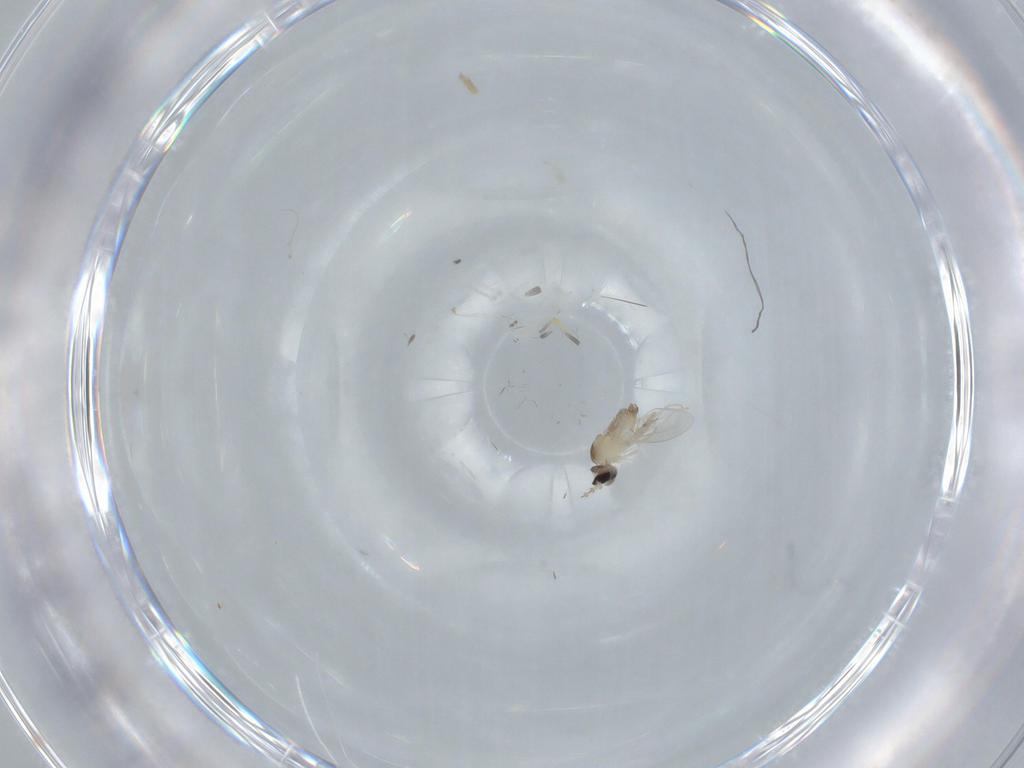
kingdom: Animalia
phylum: Arthropoda
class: Insecta
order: Diptera
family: Cecidomyiidae
